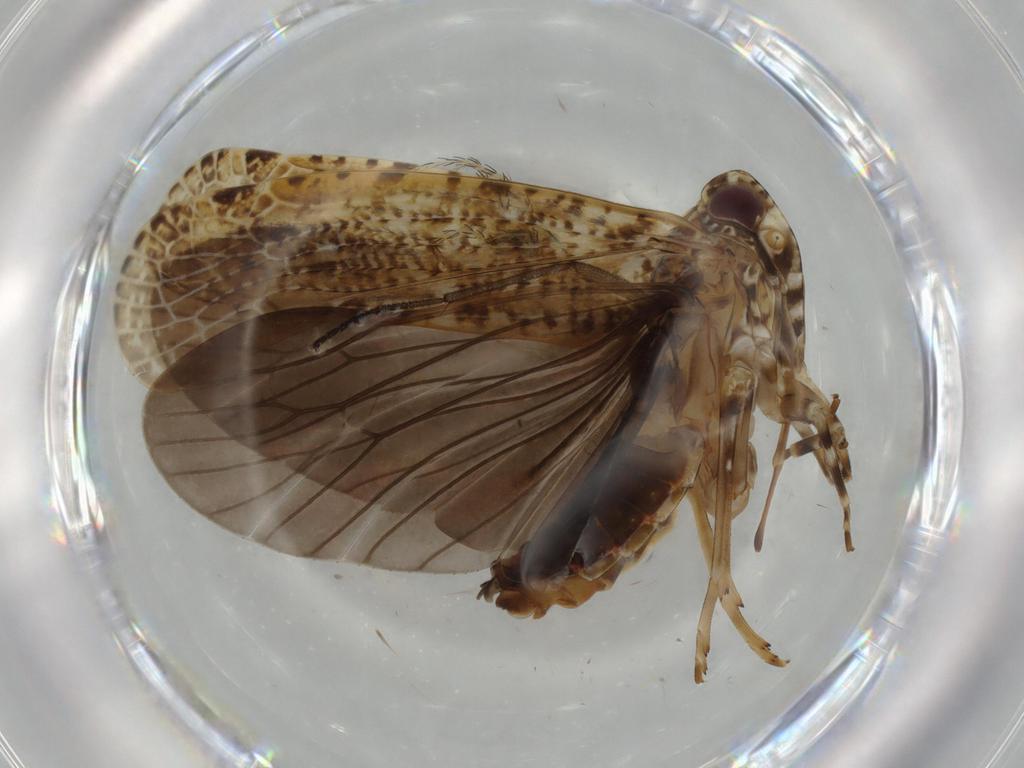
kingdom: Animalia
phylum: Arthropoda
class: Insecta
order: Hemiptera
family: Achilidae
